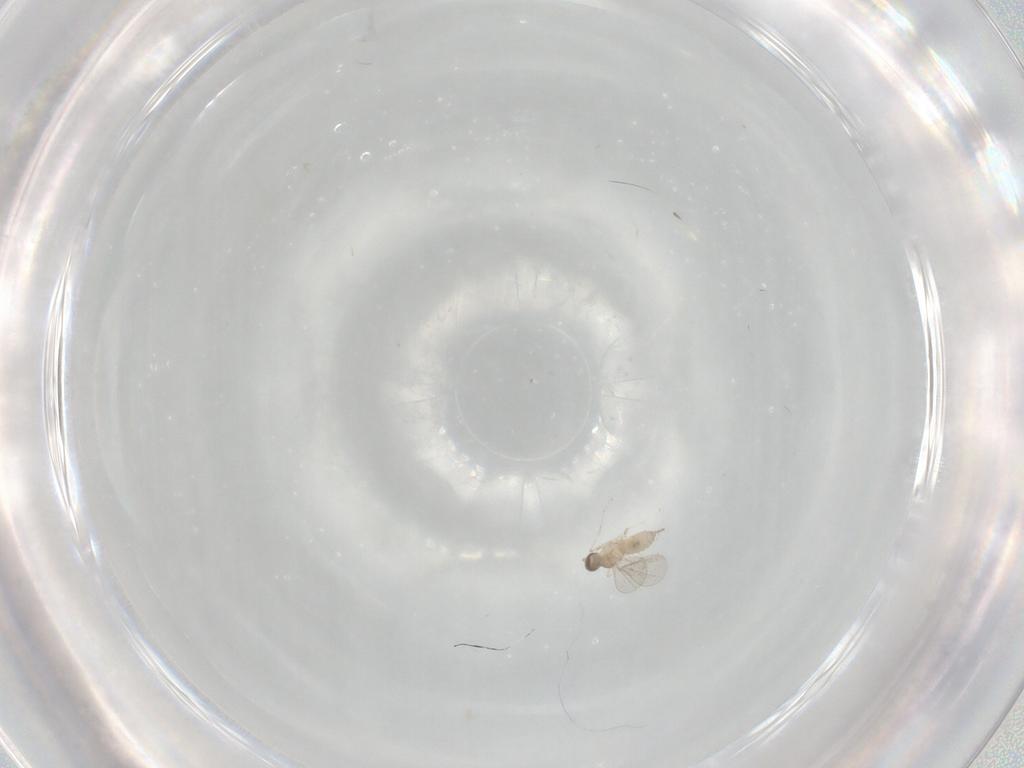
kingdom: Animalia
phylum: Arthropoda
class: Insecta
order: Diptera
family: Cecidomyiidae
